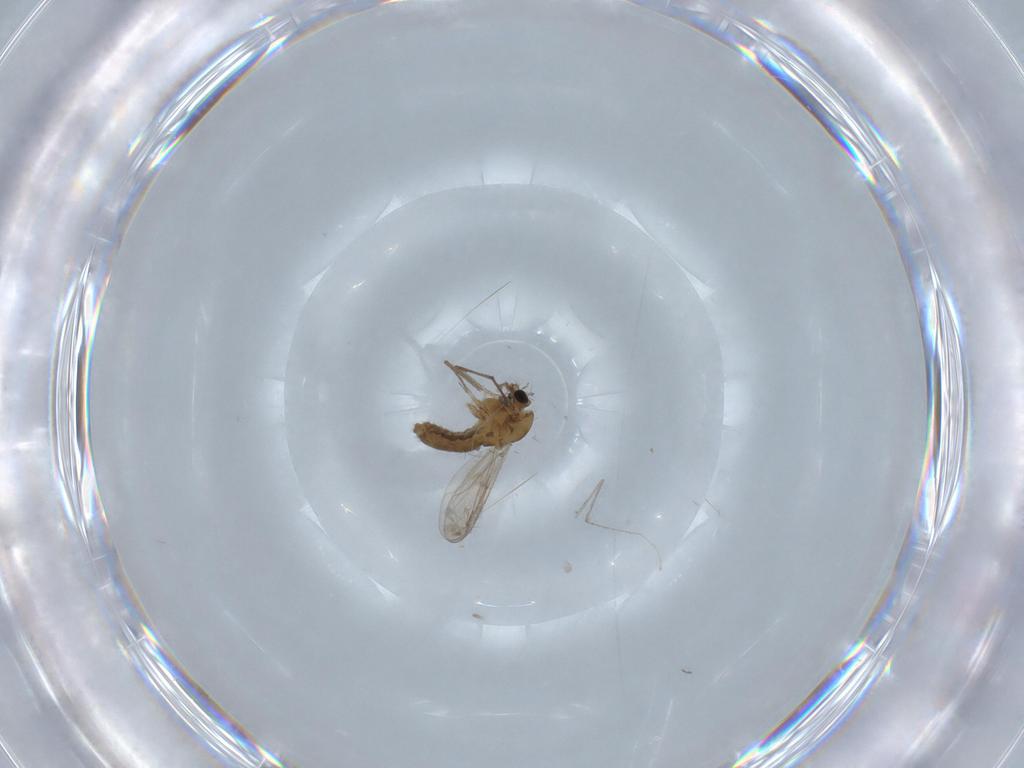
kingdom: Animalia
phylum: Arthropoda
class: Insecta
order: Diptera
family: Chironomidae
